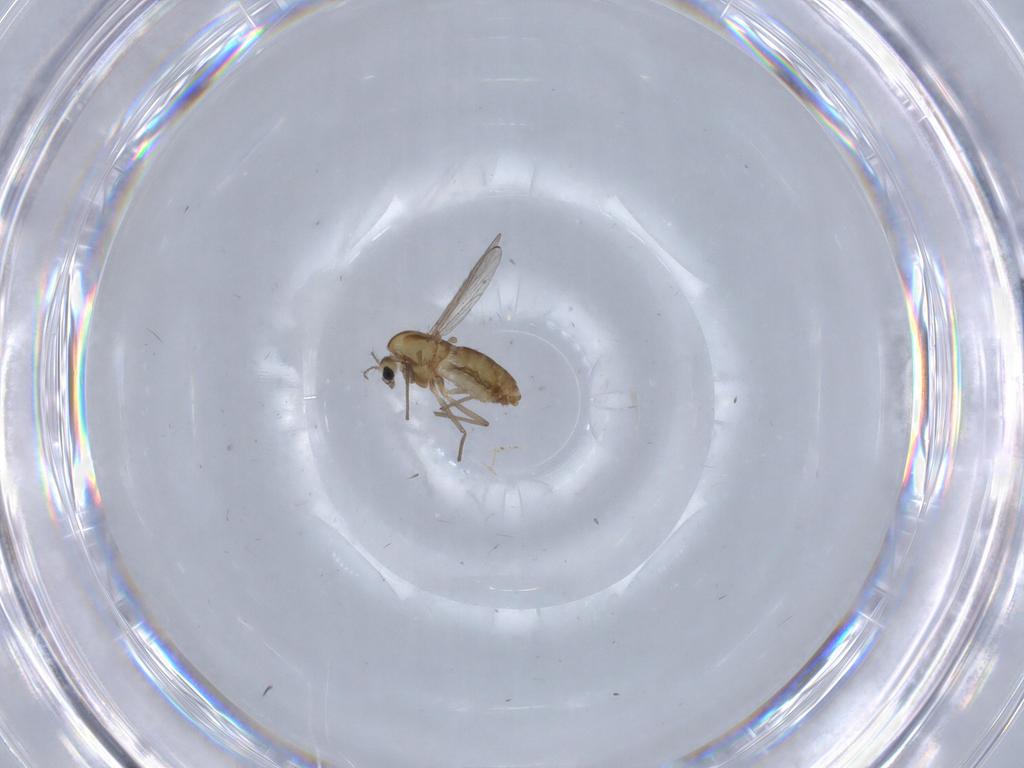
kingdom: Animalia
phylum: Arthropoda
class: Insecta
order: Diptera
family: Chironomidae
